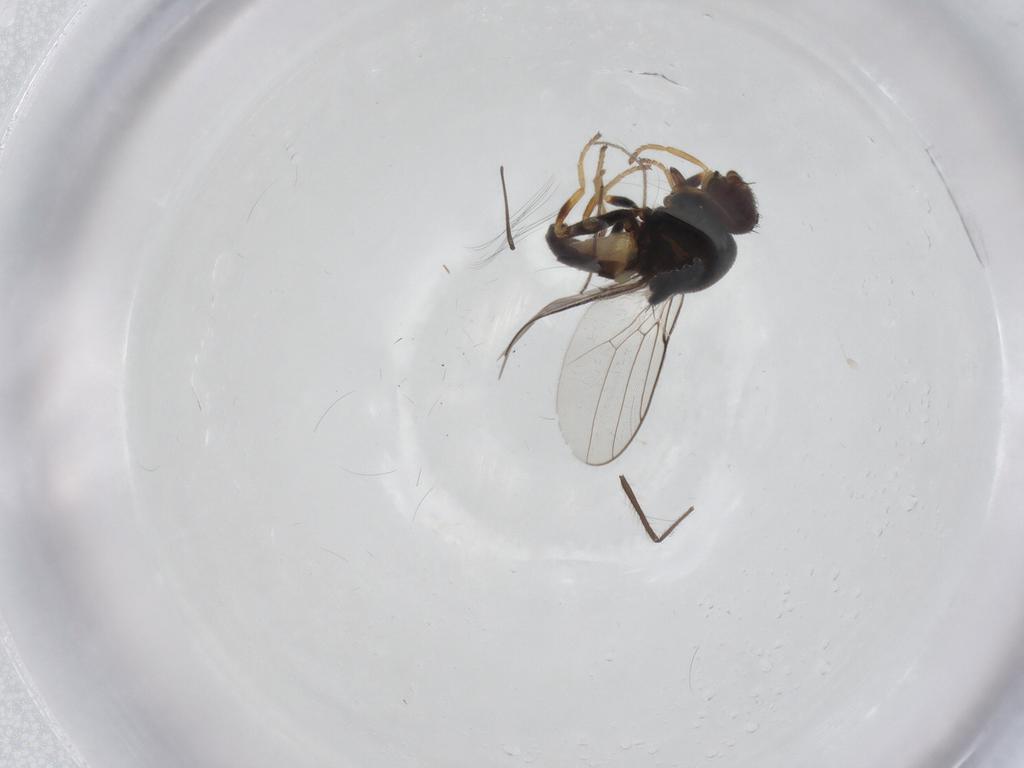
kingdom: Animalia
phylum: Arthropoda
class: Insecta
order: Diptera
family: Chloropidae
